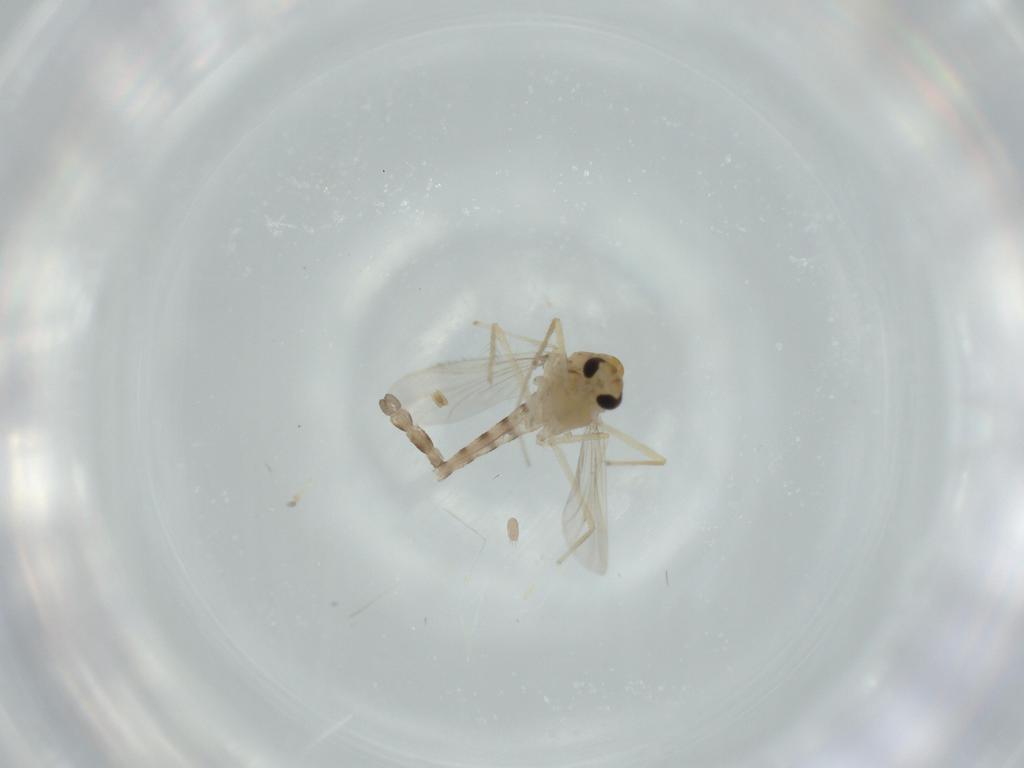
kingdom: Animalia
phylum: Arthropoda
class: Insecta
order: Diptera
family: Chironomidae
